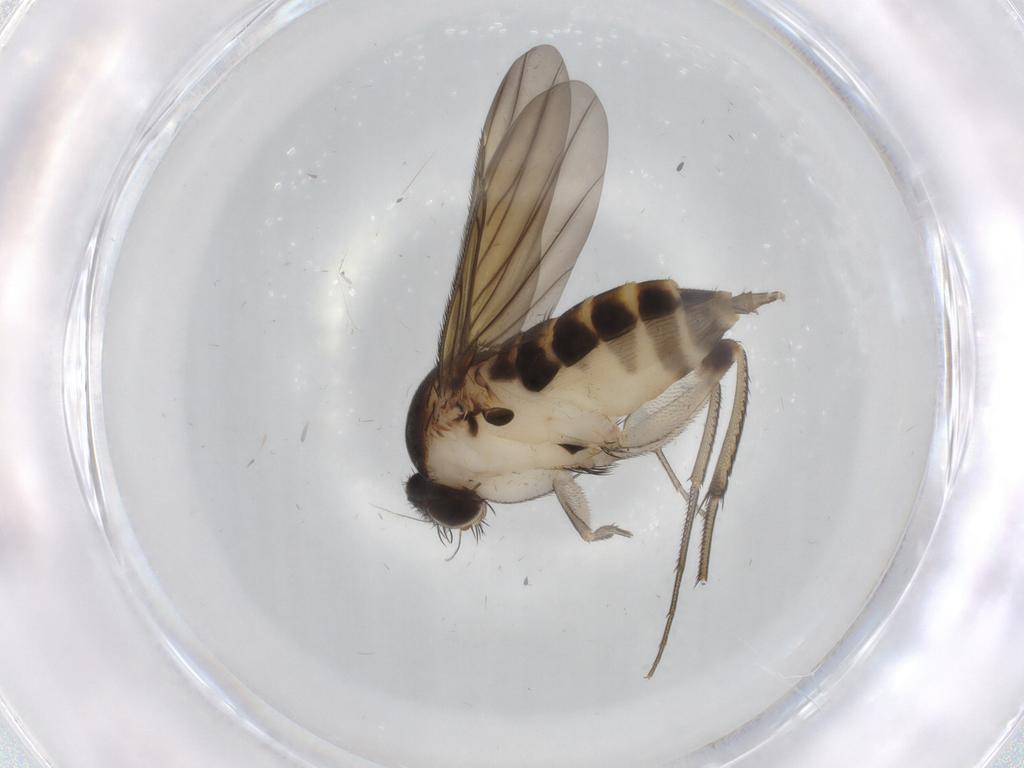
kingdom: Animalia
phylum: Arthropoda
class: Insecta
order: Diptera
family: Phoridae
